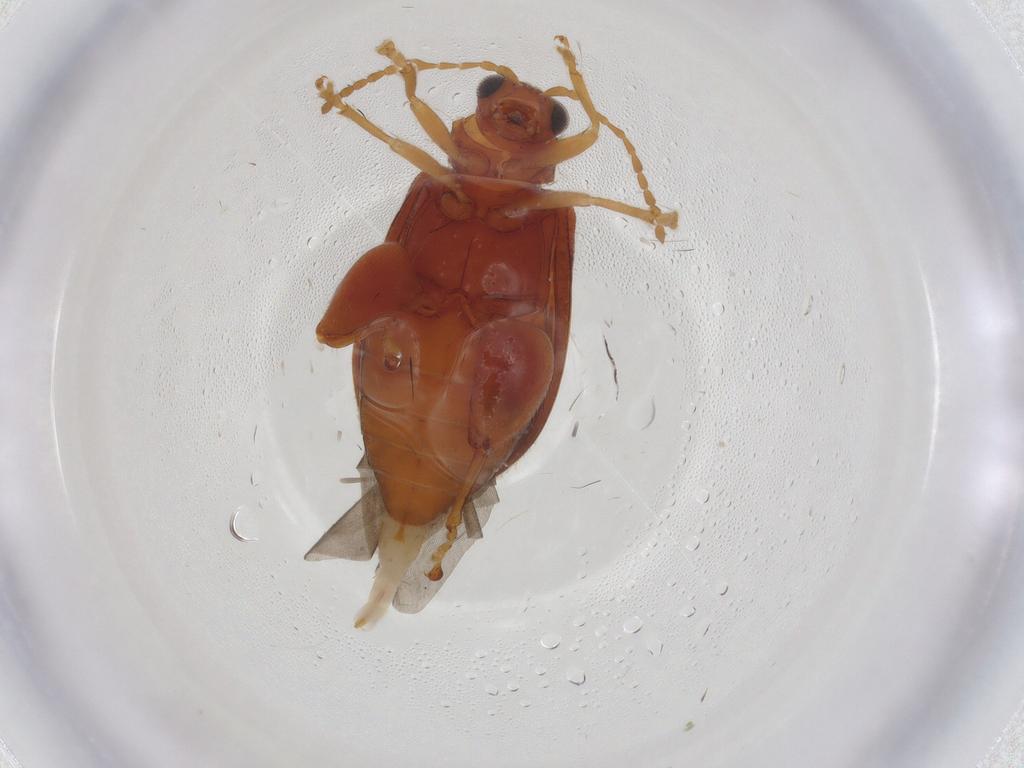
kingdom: Animalia
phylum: Arthropoda
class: Insecta
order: Coleoptera
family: Chrysomelidae
